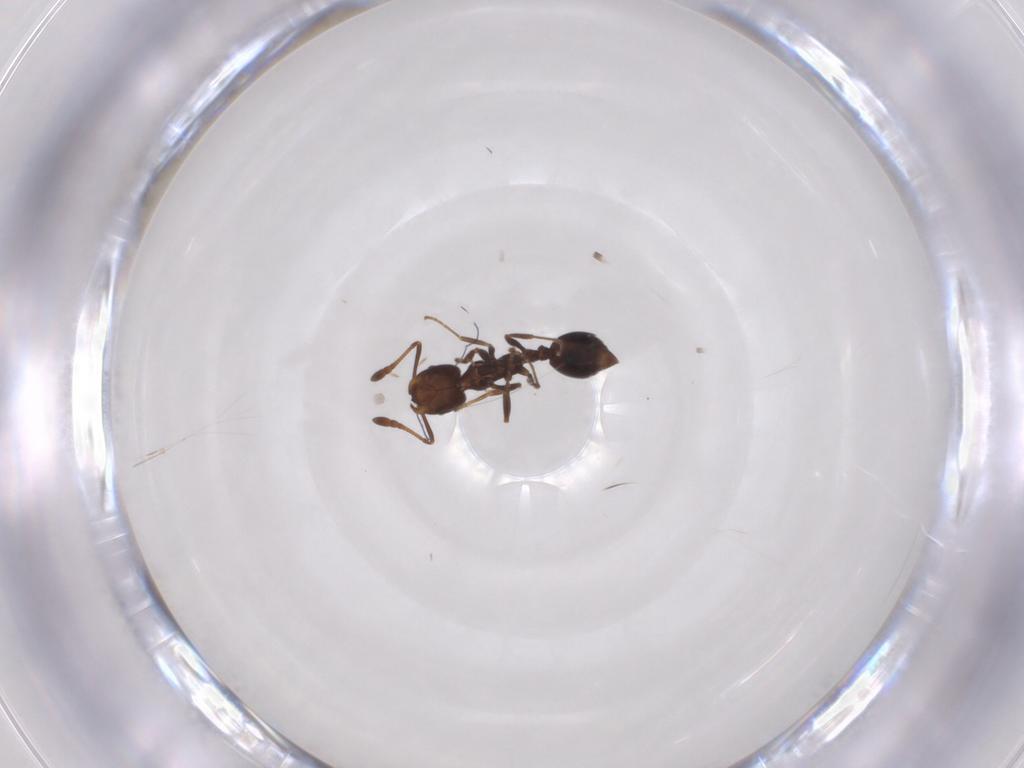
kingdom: Animalia
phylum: Arthropoda
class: Insecta
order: Hymenoptera
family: Formicidae
